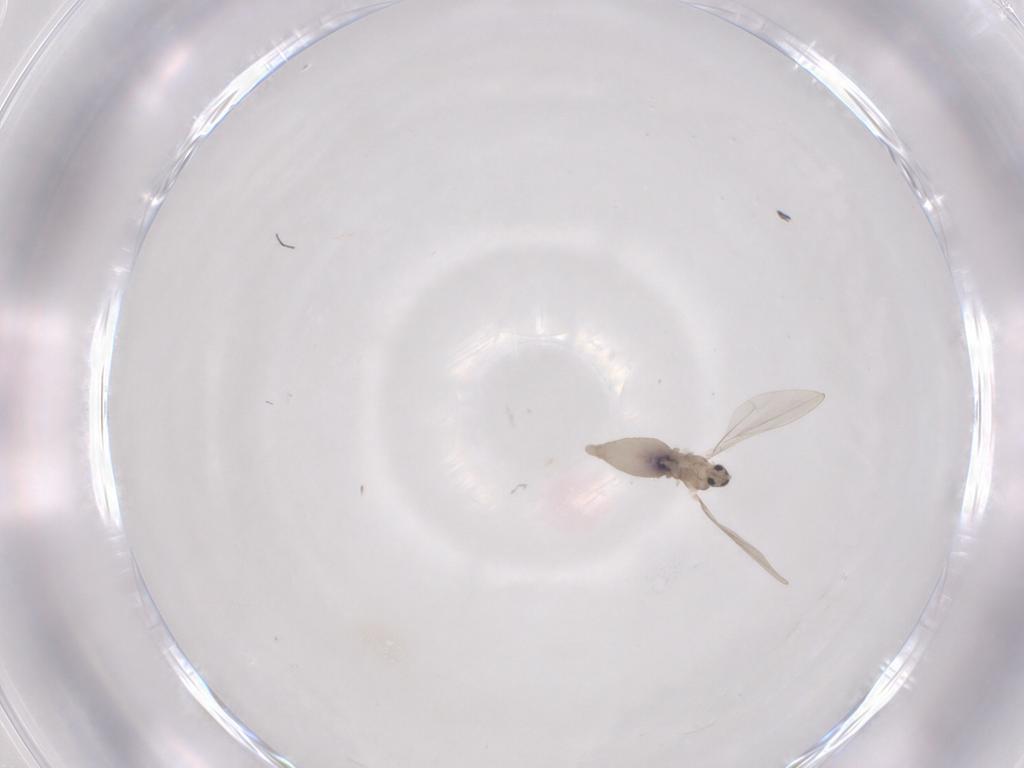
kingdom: Animalia
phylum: Arthropoda
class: Insecta
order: Diptera
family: Cecidomyiidae
